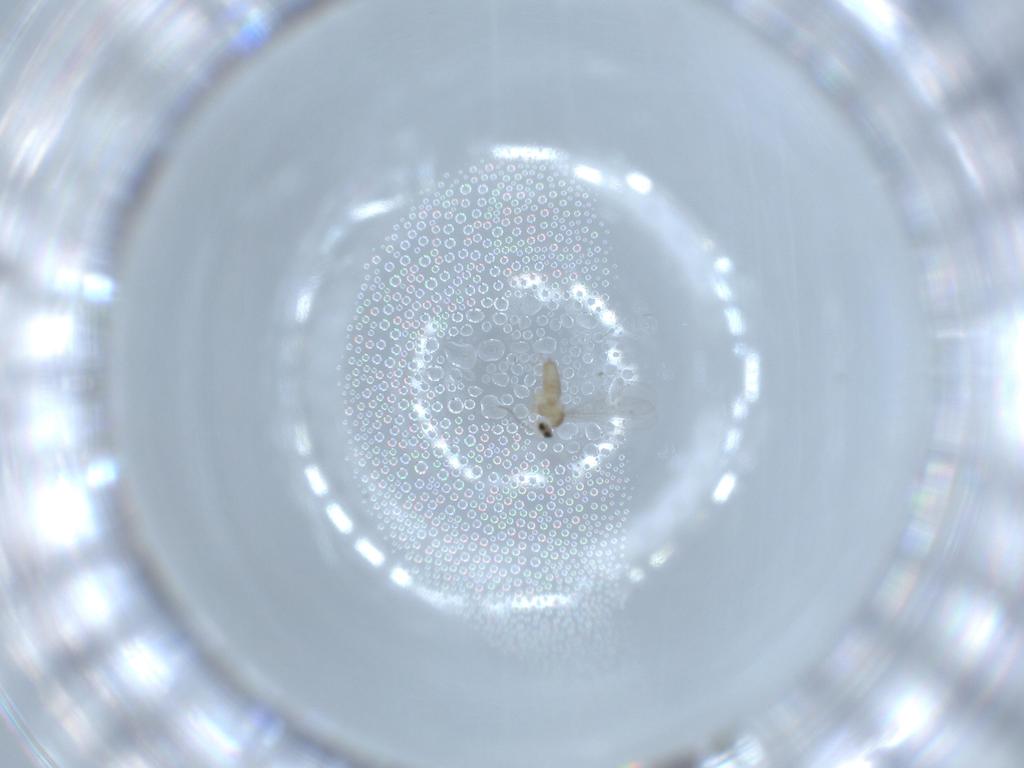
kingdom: Animalia
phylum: Arthropoda
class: Insecta
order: Diptera
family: Cecidomyiidae
